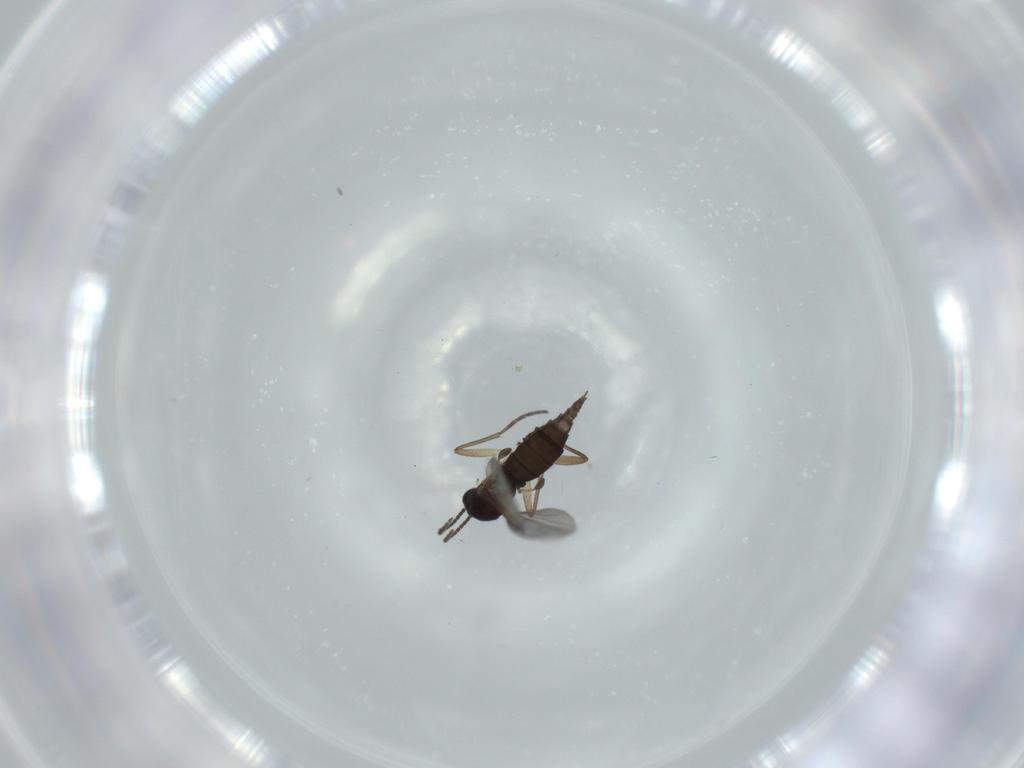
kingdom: Animalia
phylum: Arthropoda
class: Insecta
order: Diptera
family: Sciaridae
